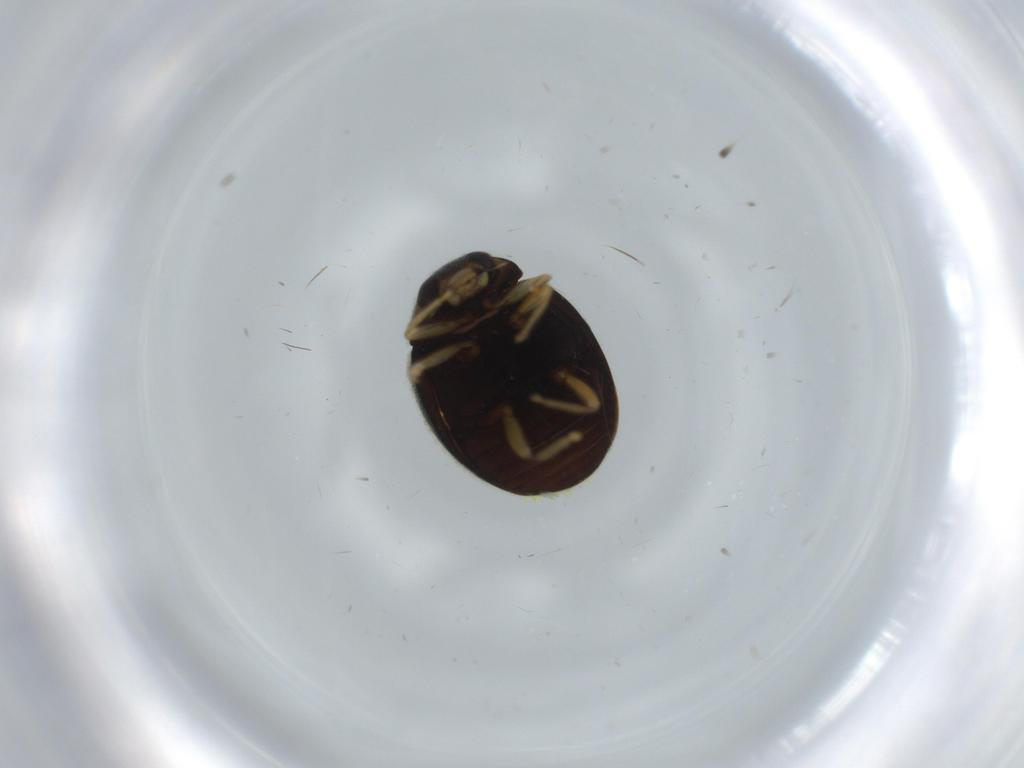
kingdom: Animalia
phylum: Arthropoda
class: Insecta
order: Coleoptera
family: Coccinellidae
